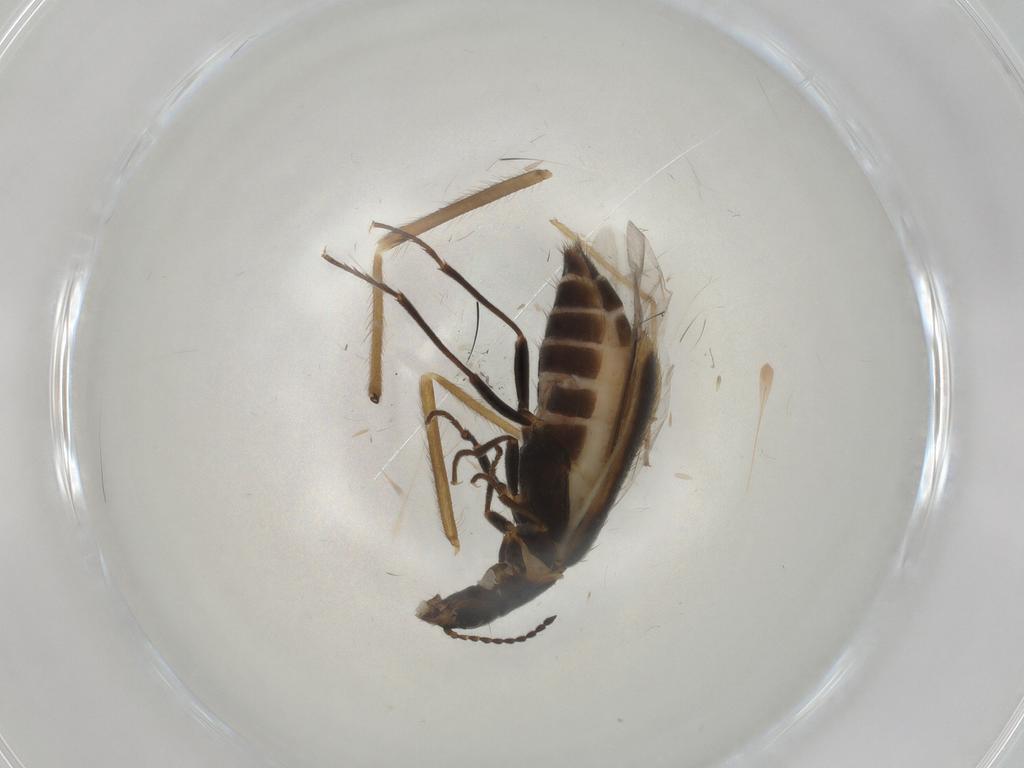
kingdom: Animalia
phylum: Arthropoda
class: Insecta
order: Coleoptera
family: Melyridae
